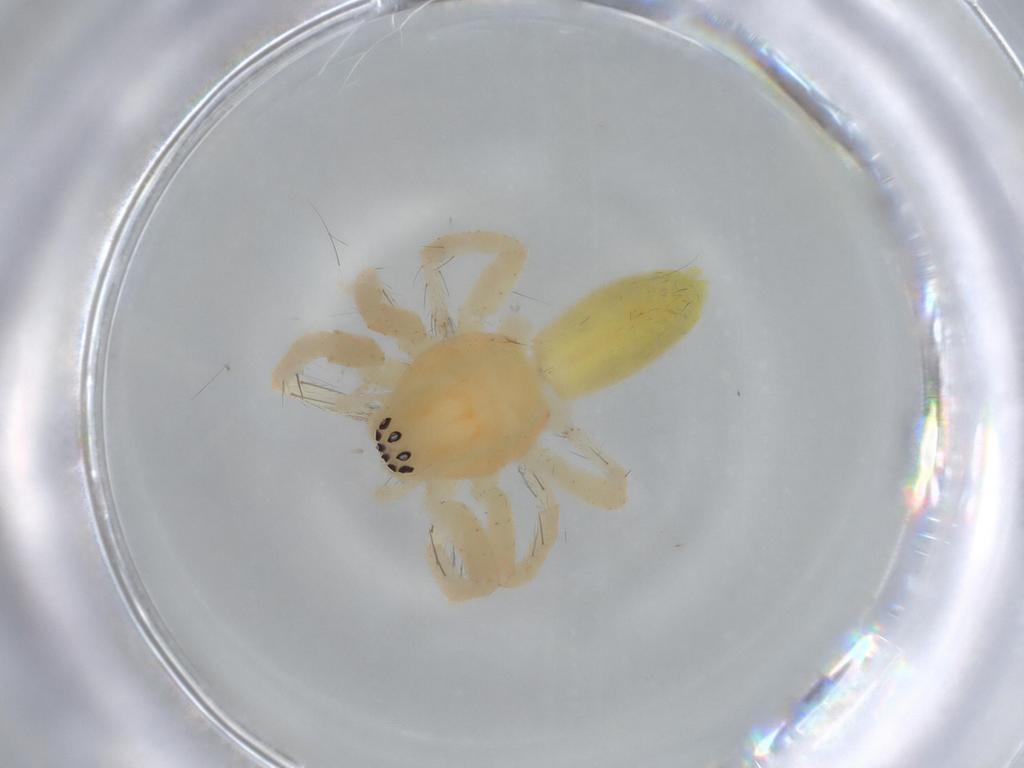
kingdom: Animalia
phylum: Arthropoda
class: Arachnida
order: Araneae
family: Anyphaenidae
